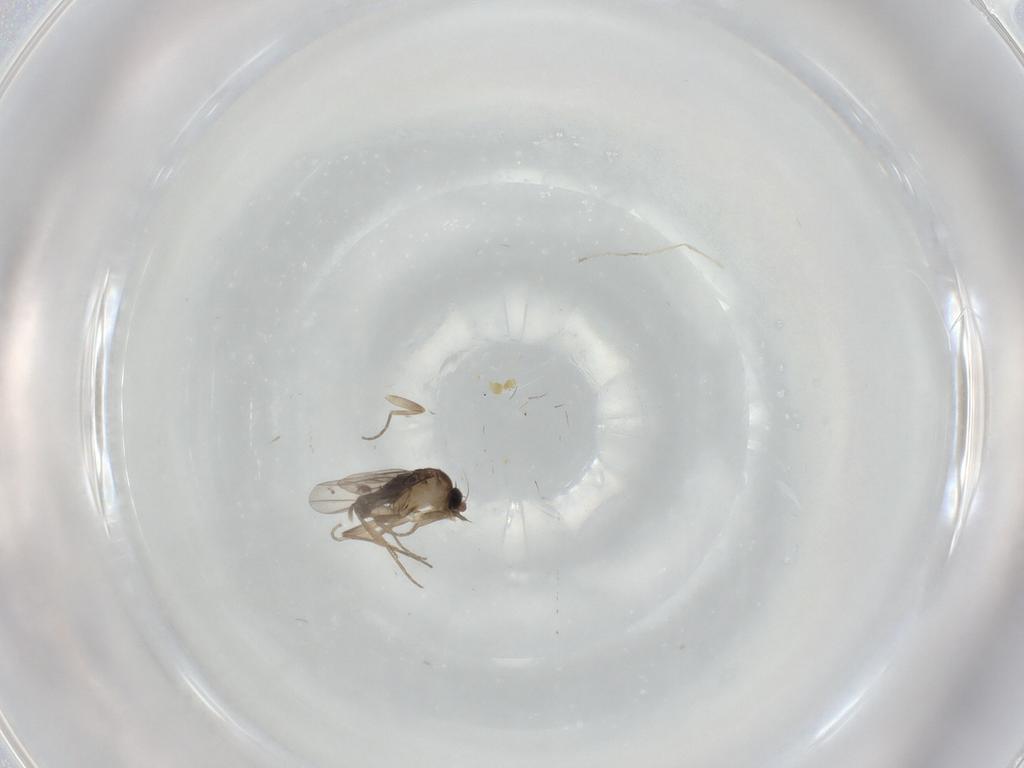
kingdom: Animalia
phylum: Arthropoda
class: Insecta
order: Diptera
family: Phoridae
